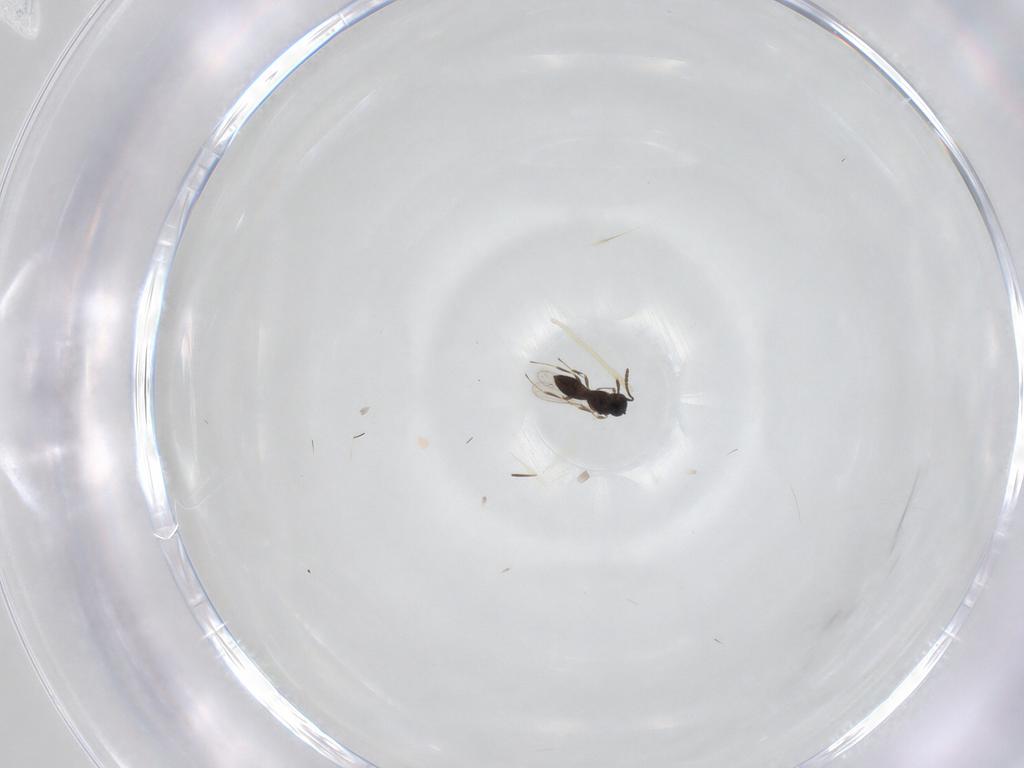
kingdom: Animalia
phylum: Arthropoda
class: Insecta
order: Hymenoptera
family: Scelionidae
